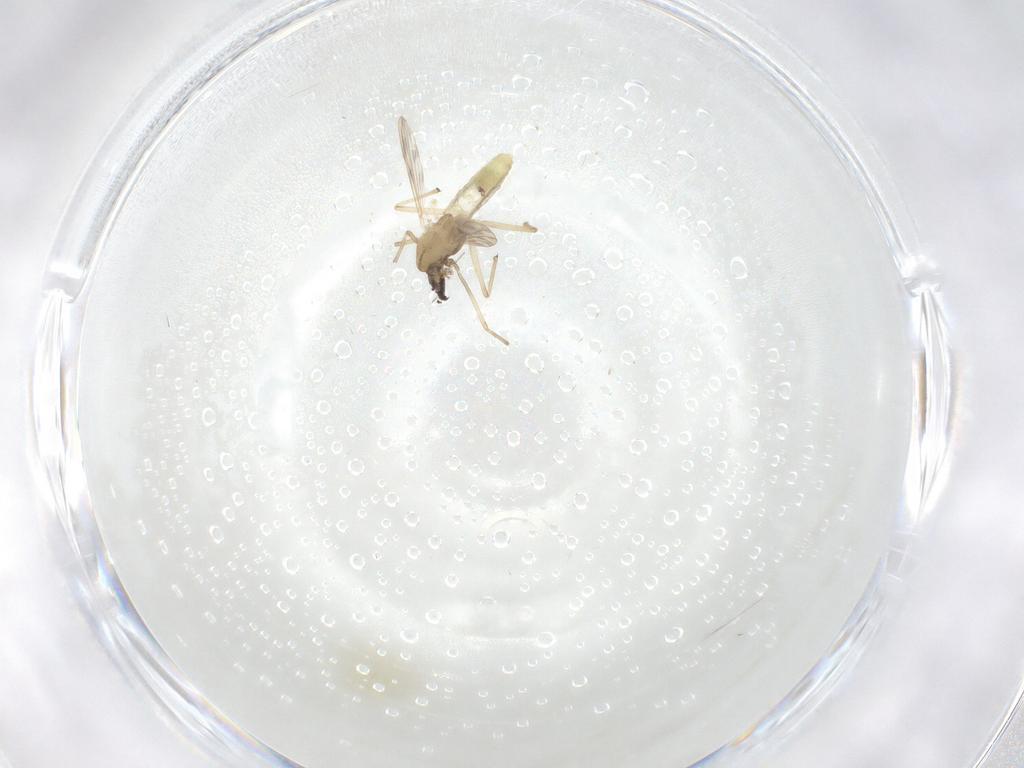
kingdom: Animalia
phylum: Arthropoda
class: Insecta
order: Diptera
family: Chironomidae
